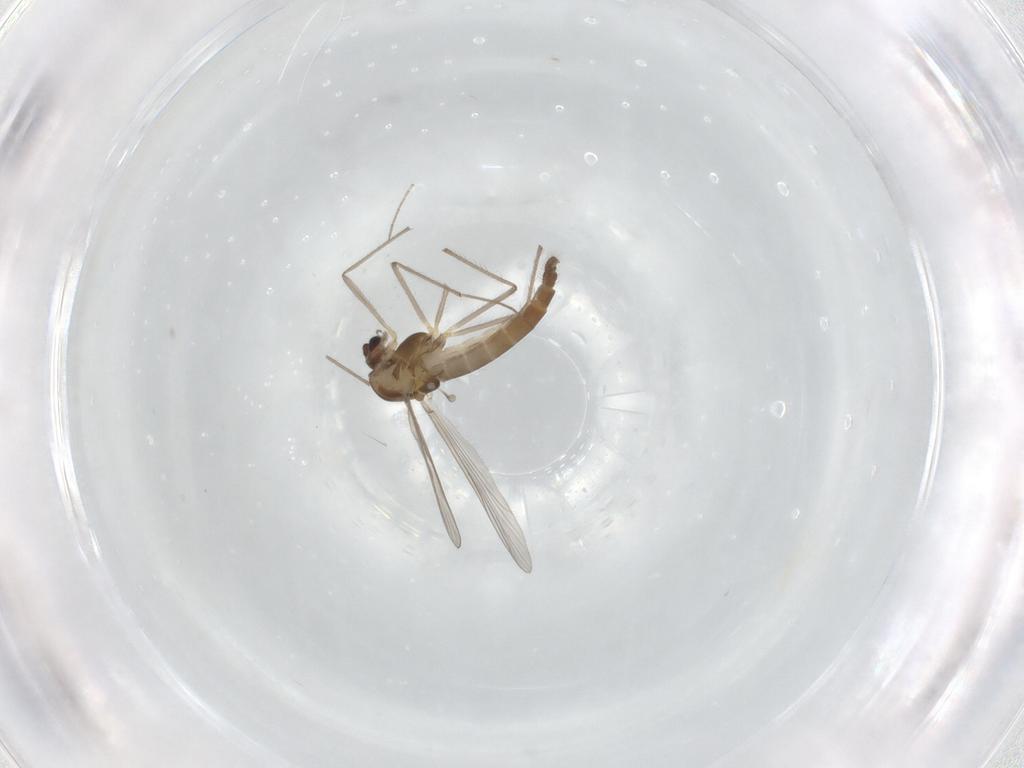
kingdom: Animalia
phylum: Arthropoda
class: Insecta
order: Diptera
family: Chironomidae
